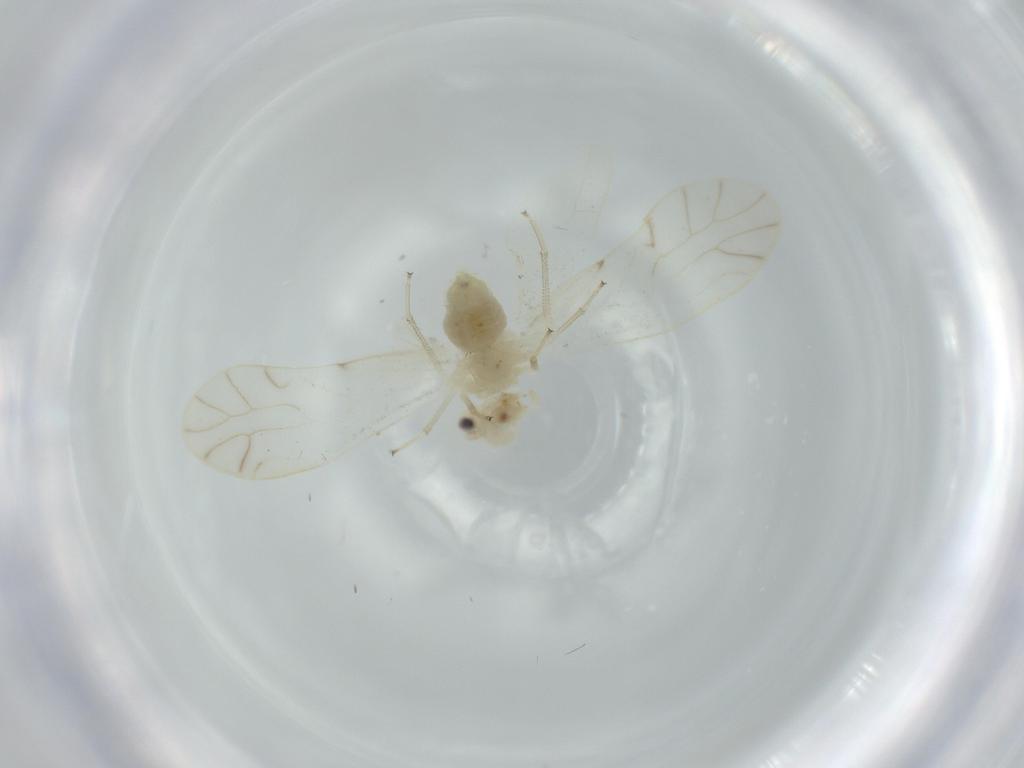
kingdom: Animalia
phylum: Arthropoda
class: Insecta
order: Psocodea
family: Caeciliusidae
